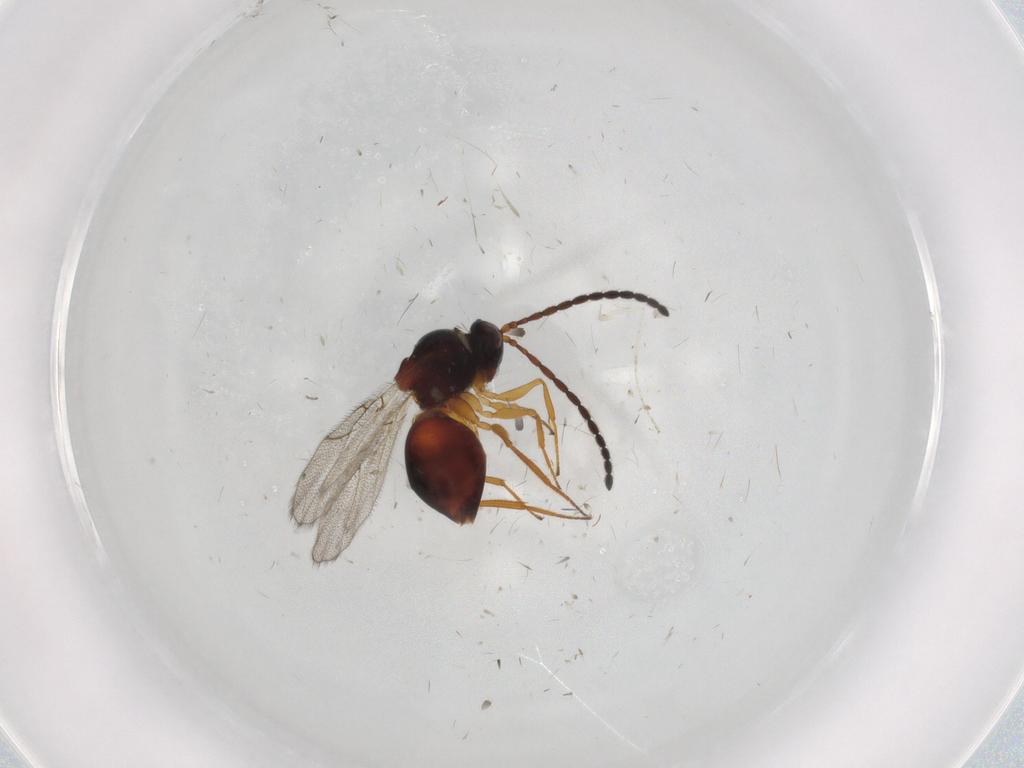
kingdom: Animalia
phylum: Arthropoda
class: Insecta
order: Hymenoptera
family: Figitidae
